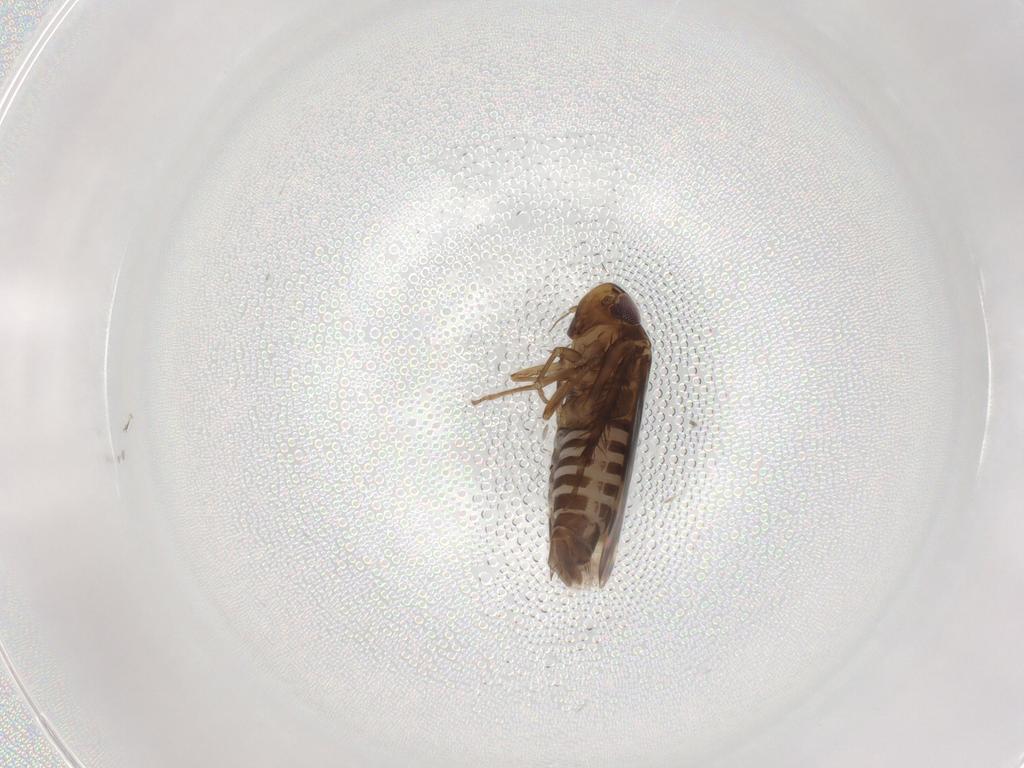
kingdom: Animalia
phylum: Arthropoda
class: Insecta
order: Hemiptera
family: Cicadellidae
